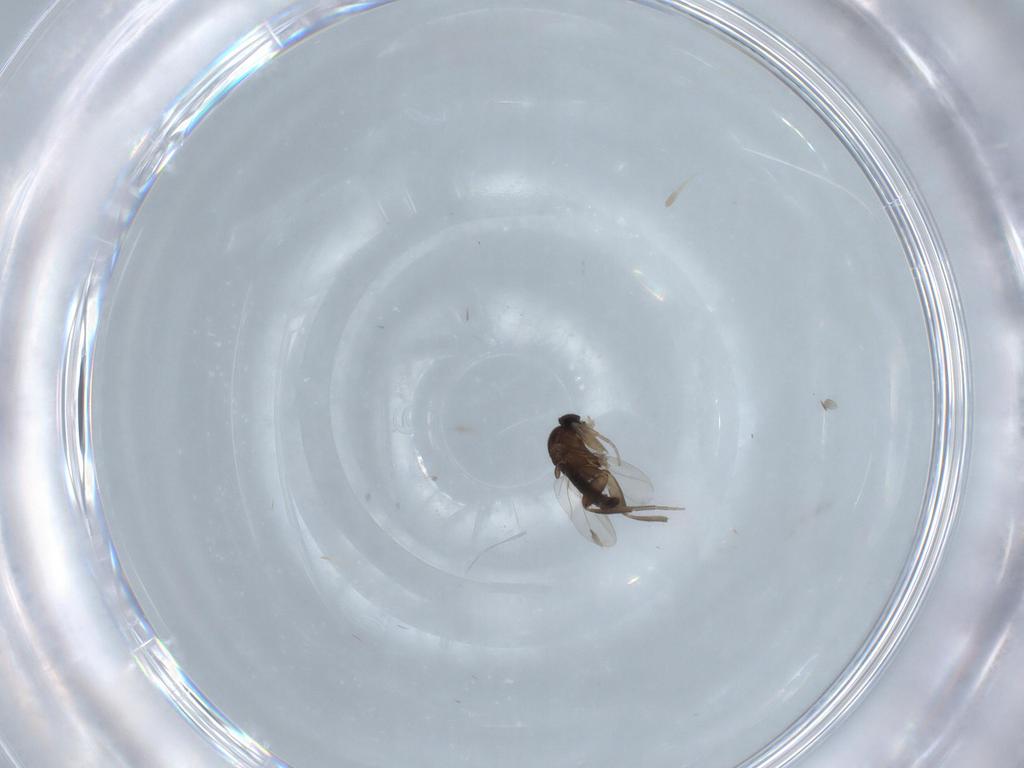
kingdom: Animalia
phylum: Arthropoda
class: Insecta
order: Diptera
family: Phoridae
